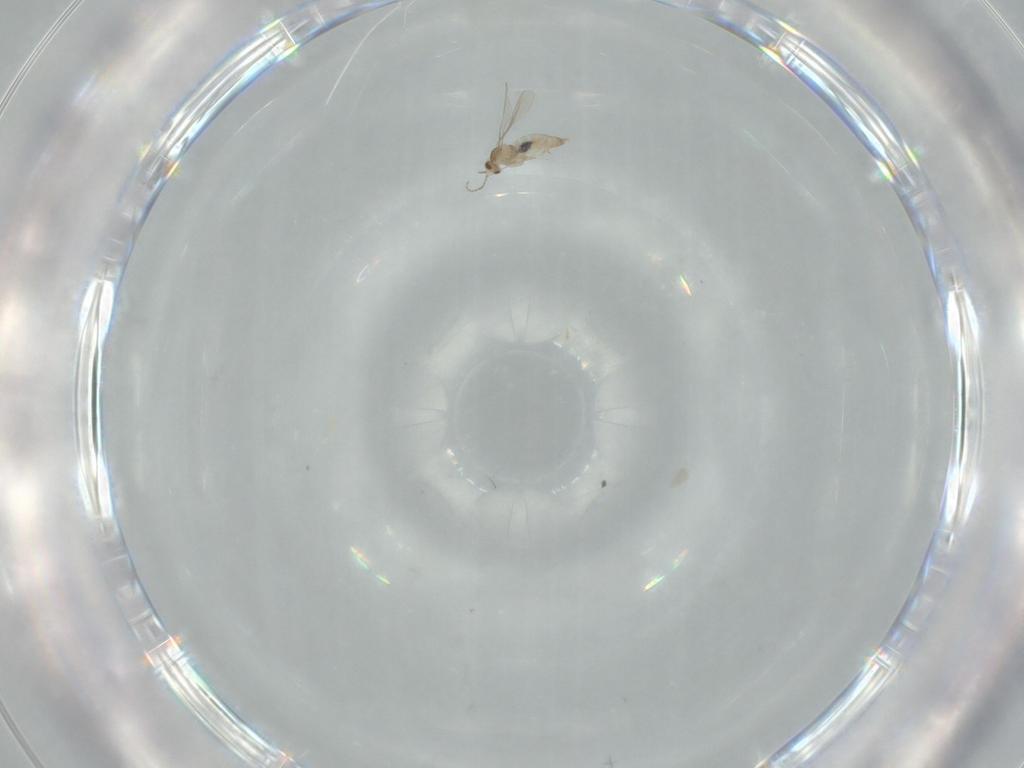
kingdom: Animalia
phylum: Arthropoda
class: Insecta
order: Diptera
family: Cecidomyiidae
